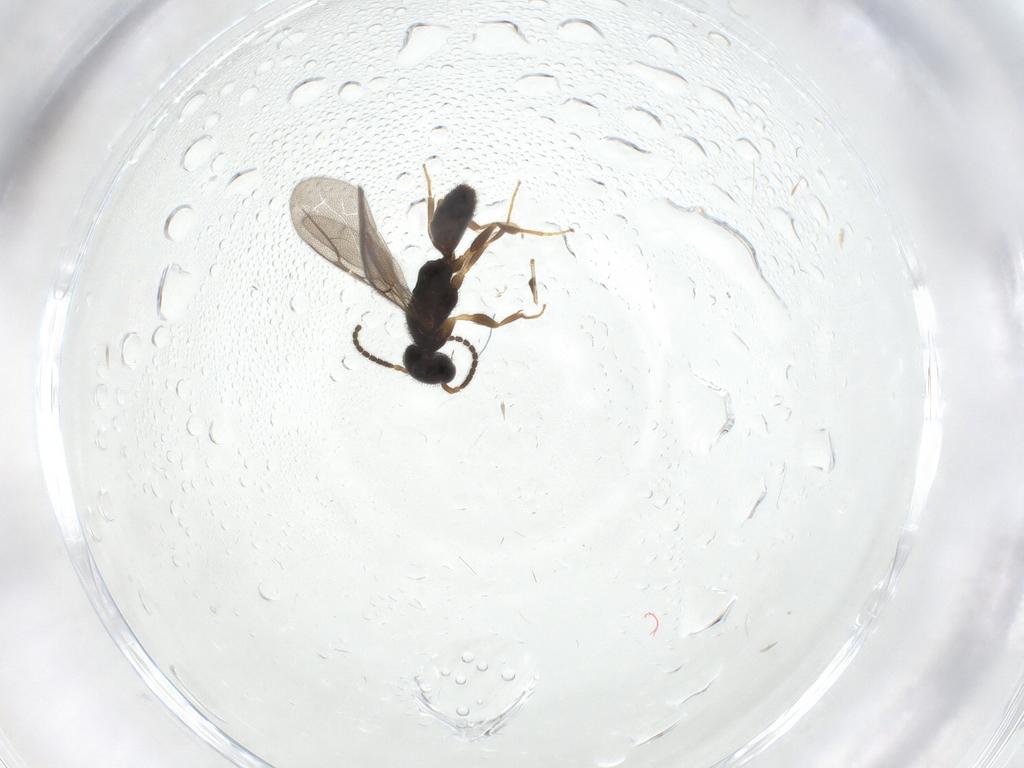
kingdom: Animalia
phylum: Arthropoda
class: Insecta
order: Hymenoptera
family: Bethylidae
